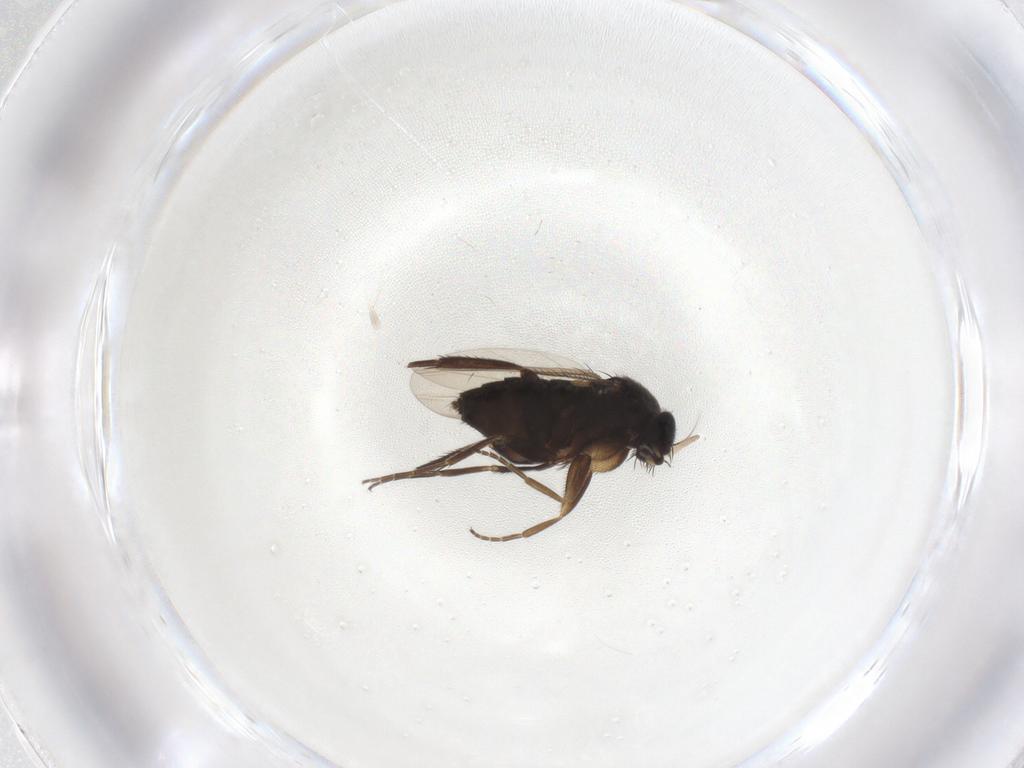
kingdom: Animalia
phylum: Arthropoda
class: Insecta
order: Diptera
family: Phoridae
